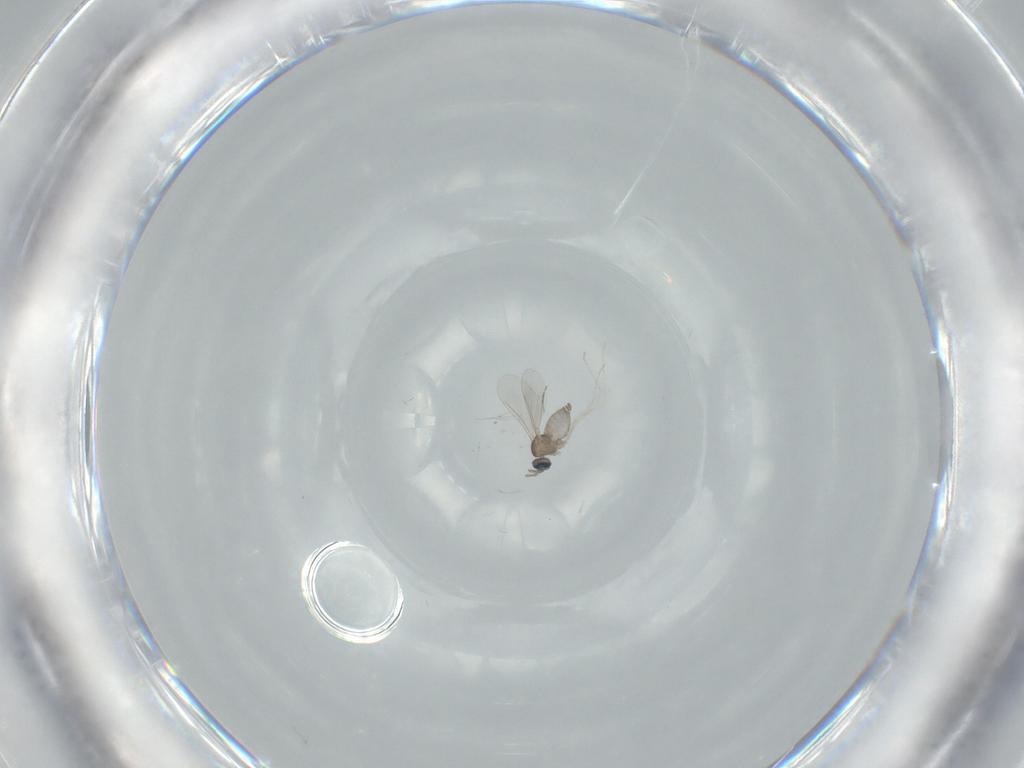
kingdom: Animalia
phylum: Arthropoda
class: Insecta
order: Diptera
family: Cecidomyiidae
